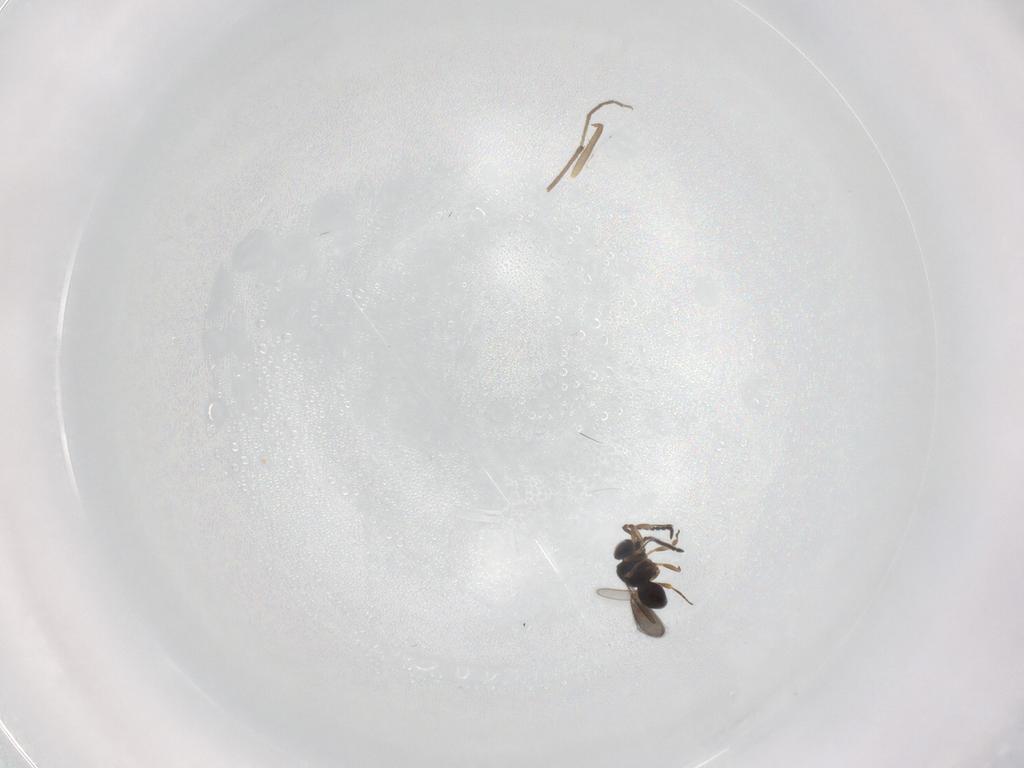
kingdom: Animalia
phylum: Arthropoda
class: Insecta
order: Hymenoptera
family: Scelionidae
